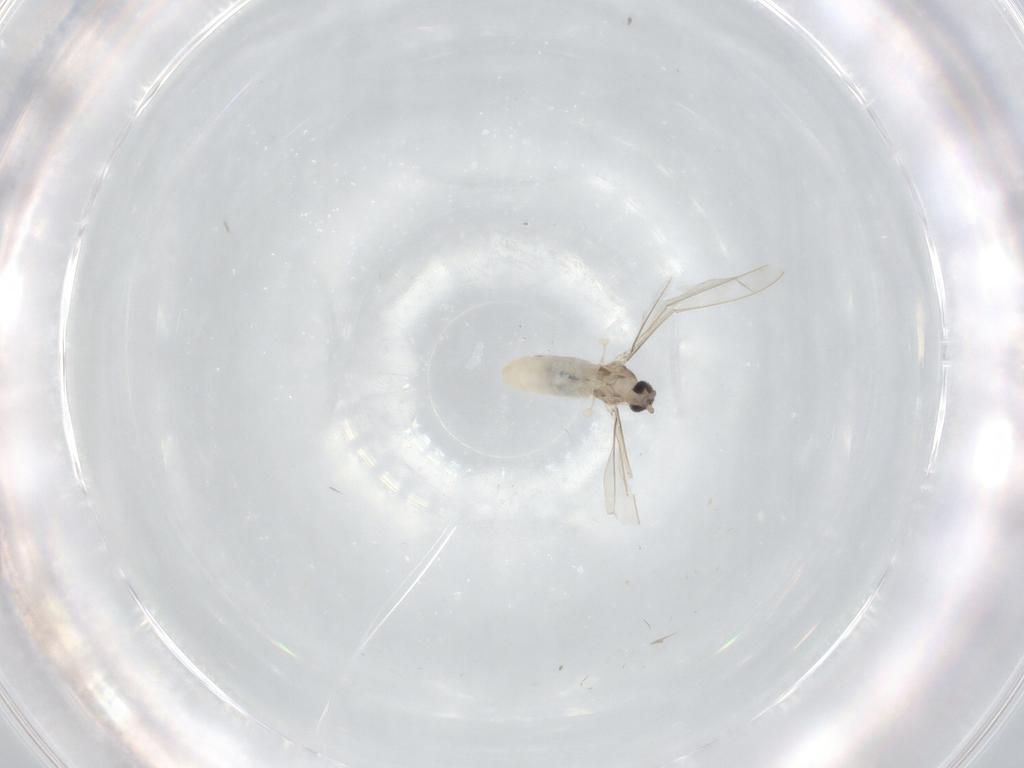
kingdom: Animalia
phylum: Arthropoda
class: Insecta
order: Diptera
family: Cecidomyiidae
